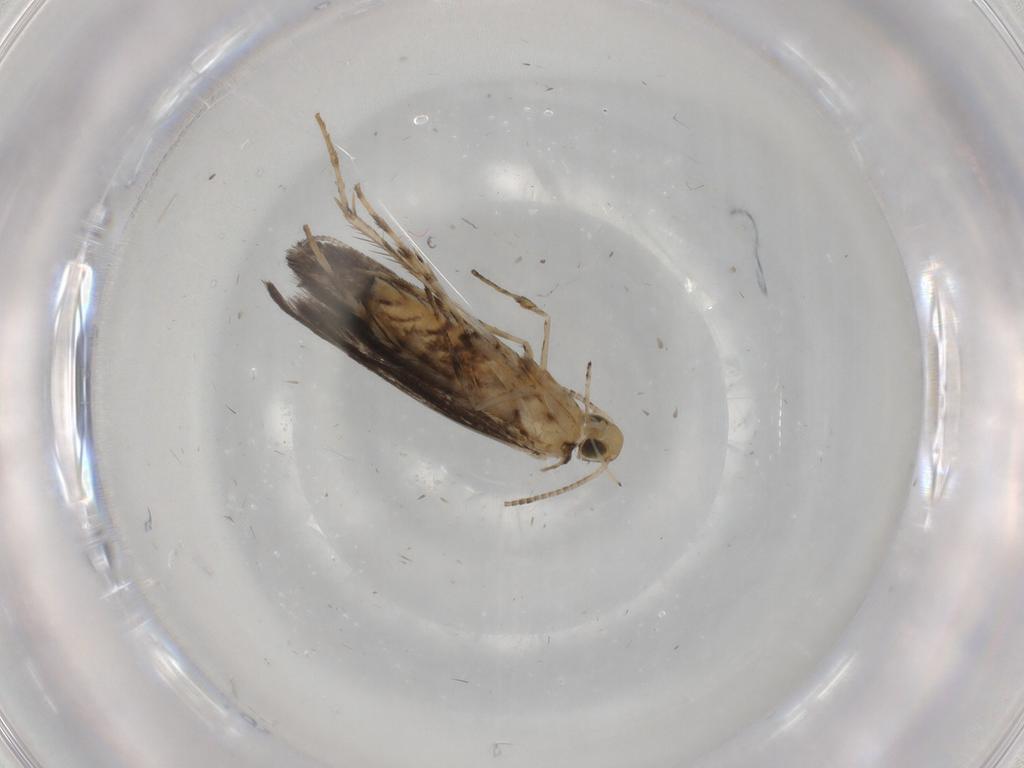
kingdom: Animalia
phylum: Arthropoda
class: Insecta
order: Lepidoptera
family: Gracillariidae
